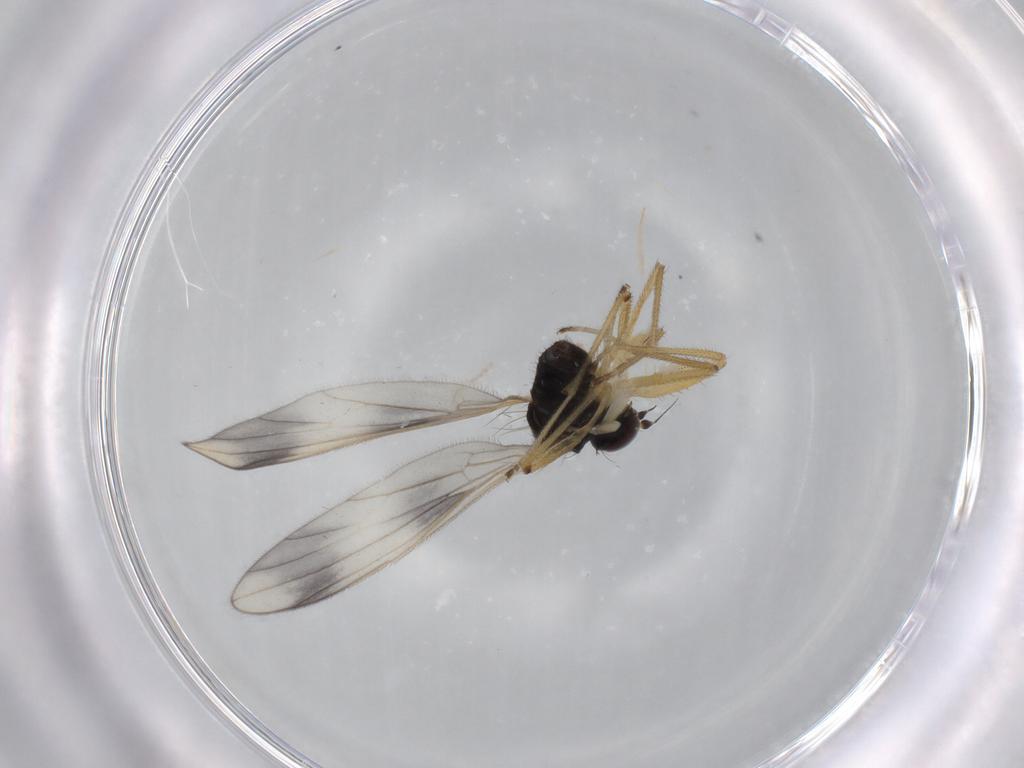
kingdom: Animalia
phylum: Arthropoda
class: Insecta
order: Diptera
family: Empididae
